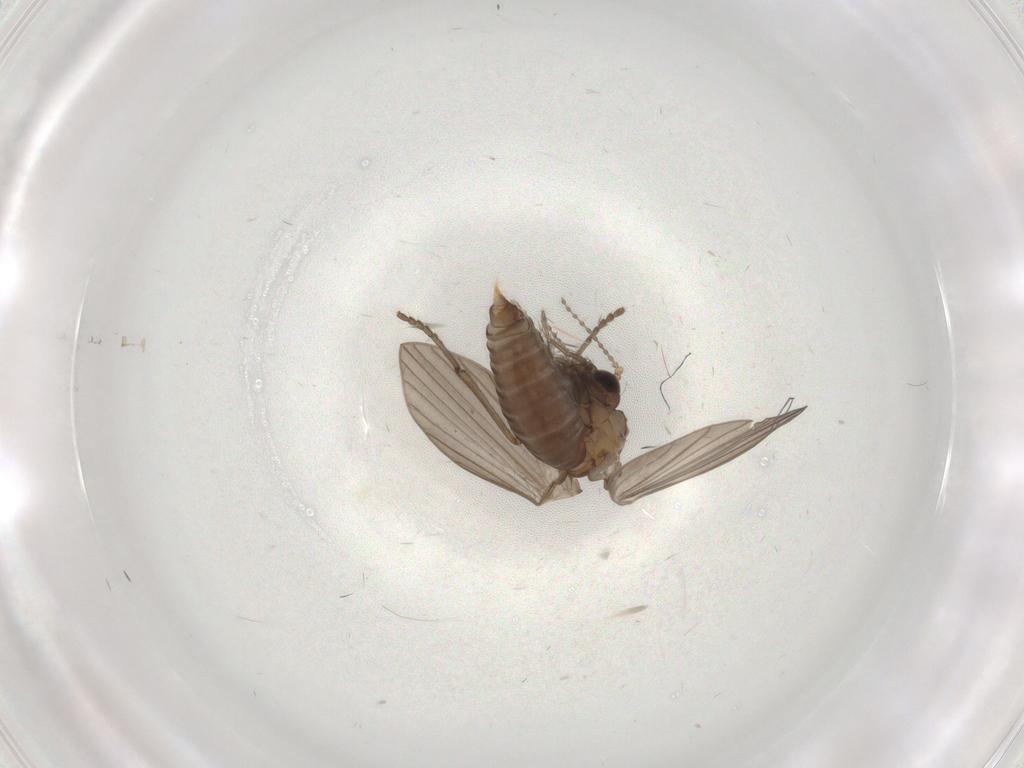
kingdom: Animalia
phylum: Arthropoda
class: Insecta
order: Diptera
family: Psychodidae
